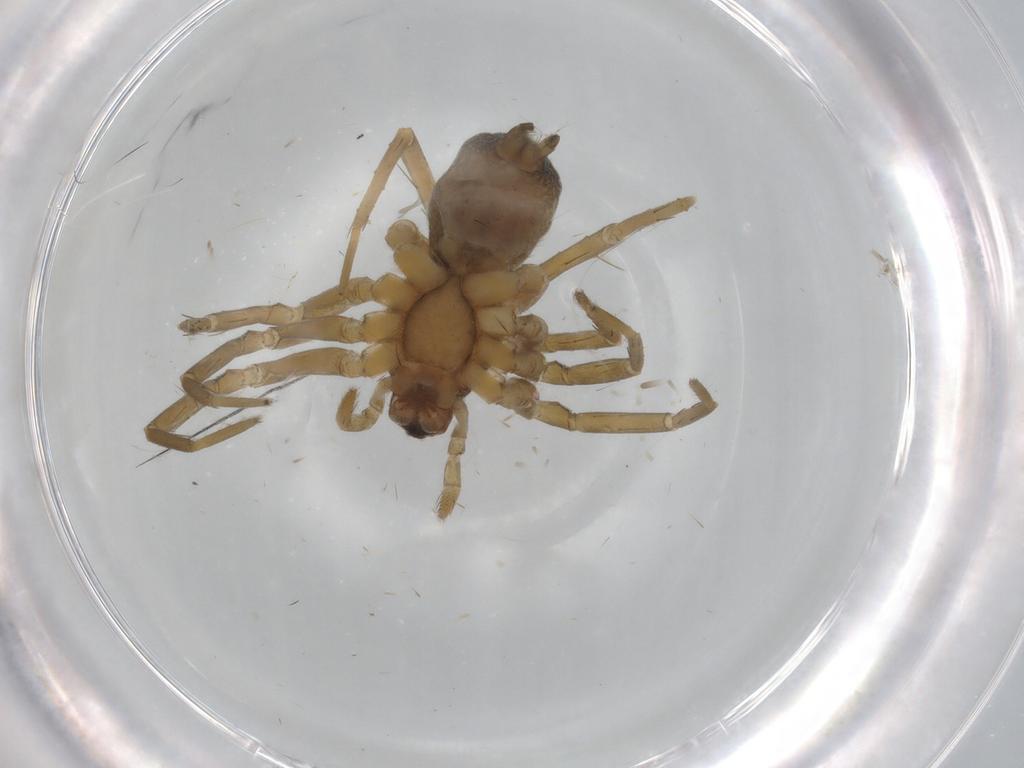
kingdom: Animalia
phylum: Arthropoda
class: Arachnida
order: Araneae
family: Lycosidae
